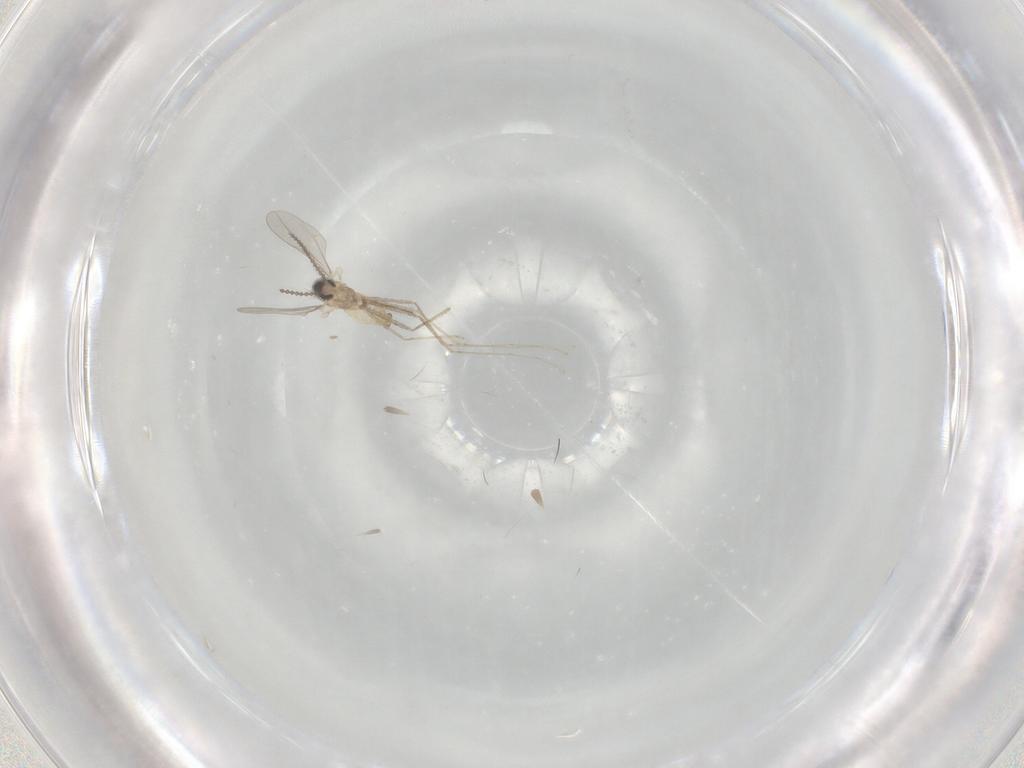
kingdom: Animalia
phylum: Arthropoda
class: Insecta
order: Diptera
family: Cecidomyiidae
